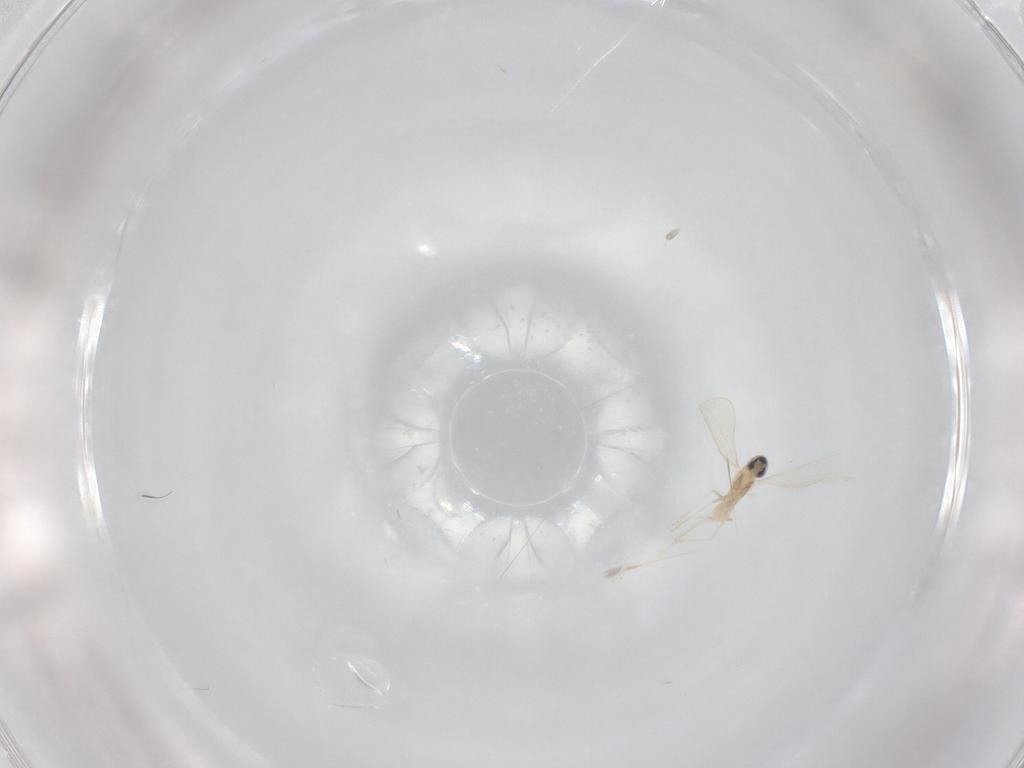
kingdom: Animalia
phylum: Arthropoda
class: Insecta
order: Diptera
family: Cecidomyiidae
